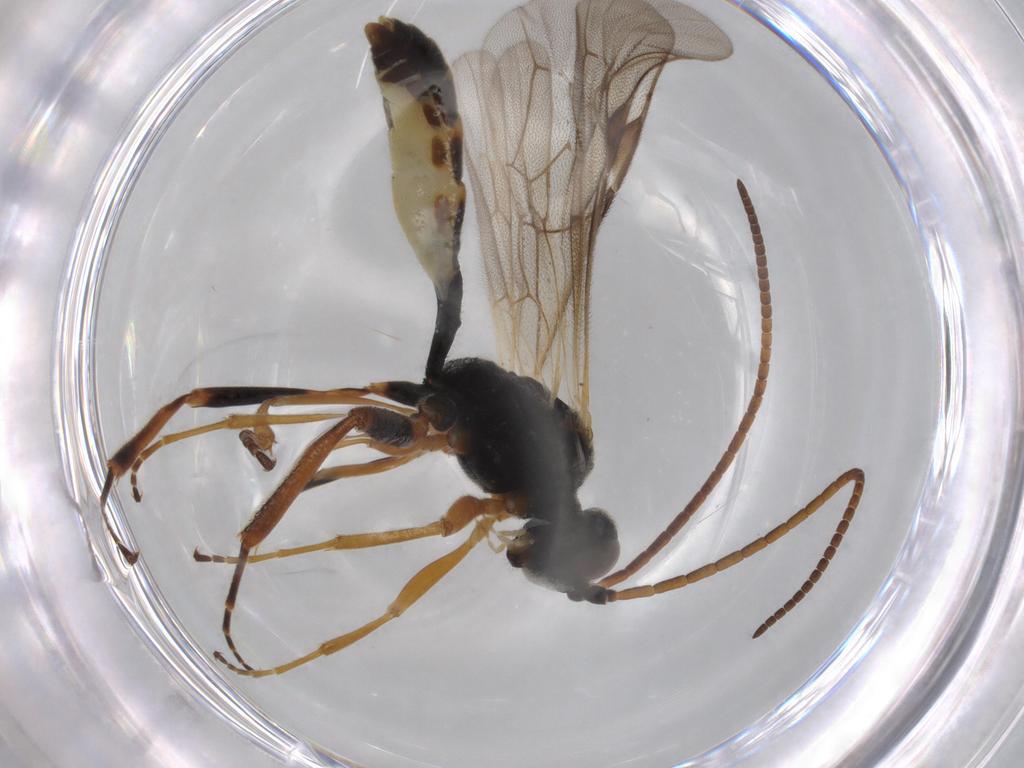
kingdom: Animalia
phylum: Arthropoda
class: Insecta
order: Hymenoptera
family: Ichneumonidae
